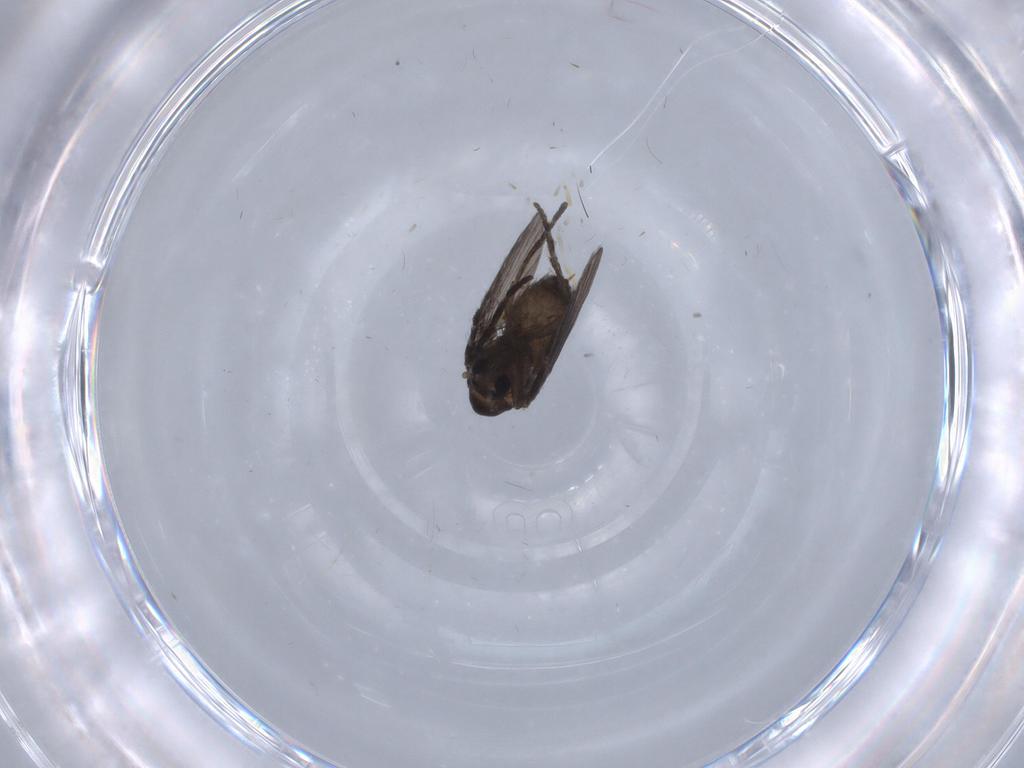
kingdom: Animalia
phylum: Arthropoda
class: Insecta
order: Diptera
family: Psychodidae
